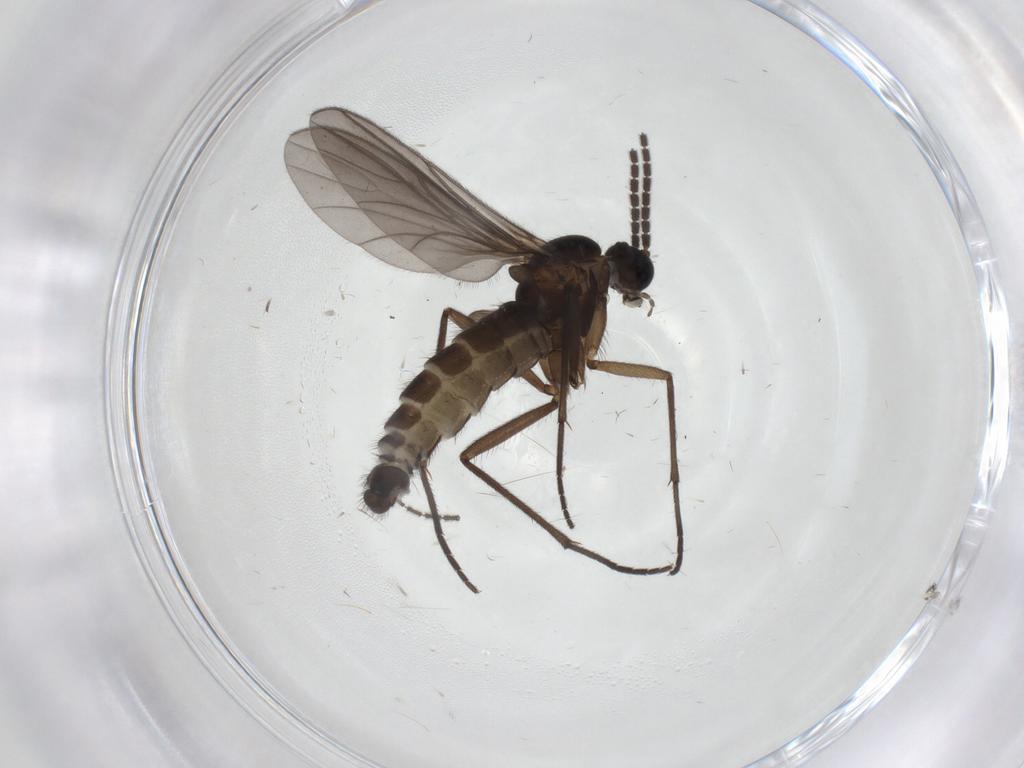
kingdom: Animalia
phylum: Arthropoda
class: Insecta
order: Diptera
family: Sciaridae
